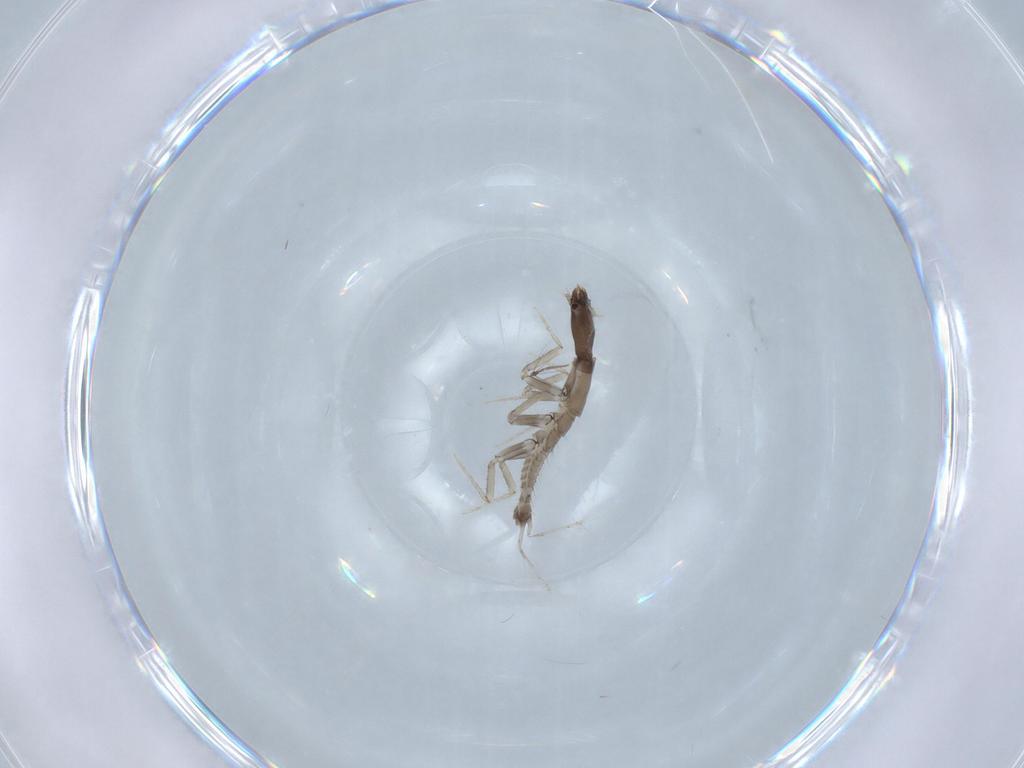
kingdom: Animalia
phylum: Arthropoda
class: Insecta
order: Diptera
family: Chironomidae
